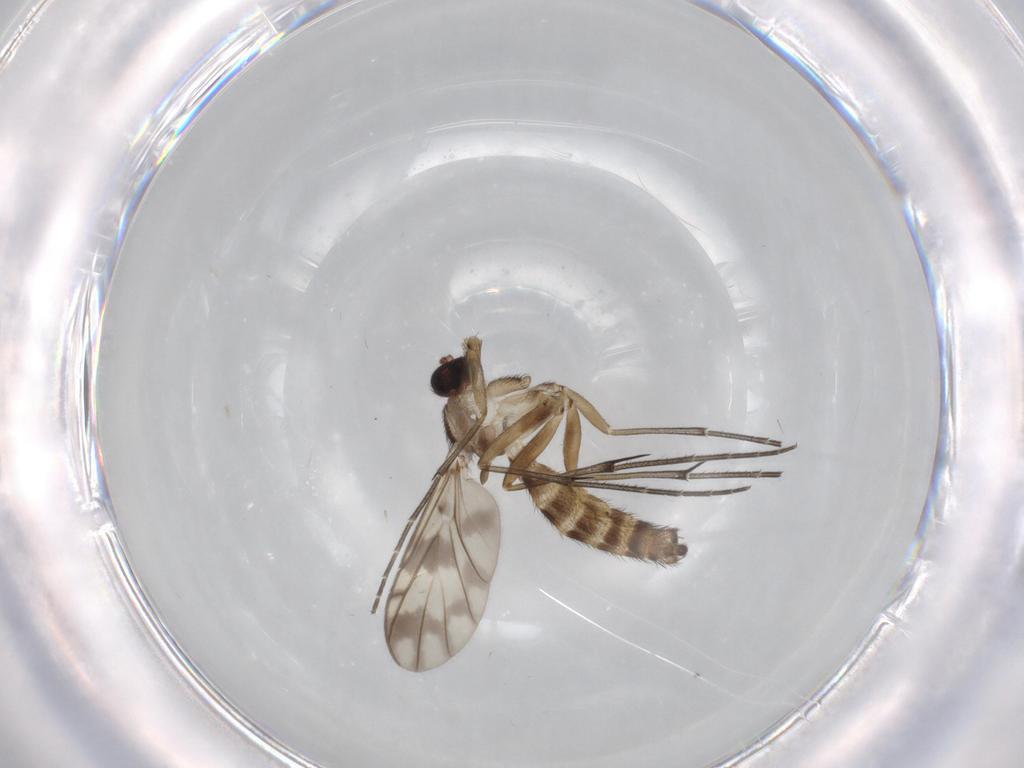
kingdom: Animalia
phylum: Arthropoda
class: Insecta
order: Diptera
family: Keroplatidae
